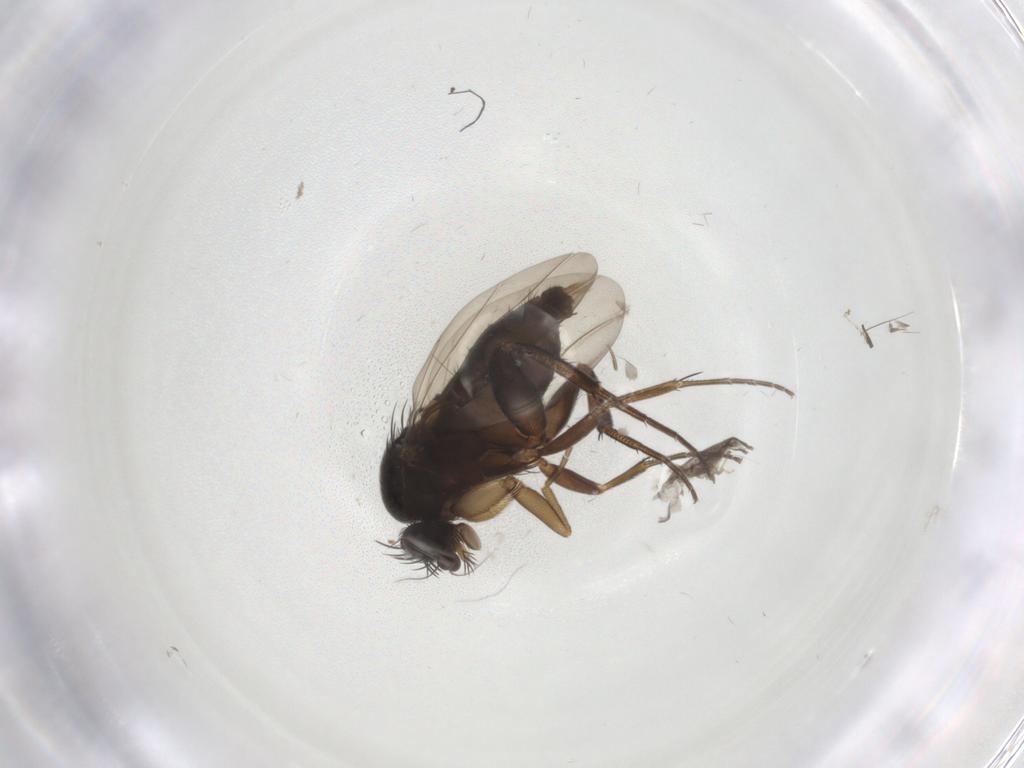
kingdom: Animalia
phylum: Arthropoda
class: Insecta
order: Diptera
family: Phoridae
